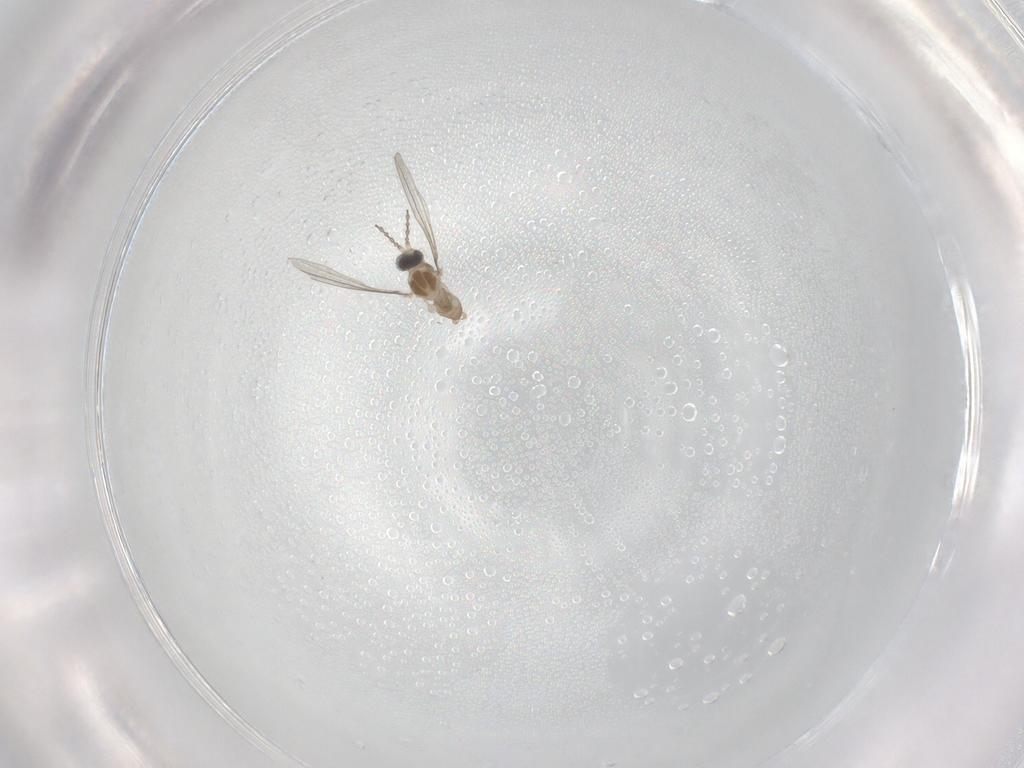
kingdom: Animalia
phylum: Arthropoda
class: Insecta
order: Diptera
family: Cecidomyiidae
